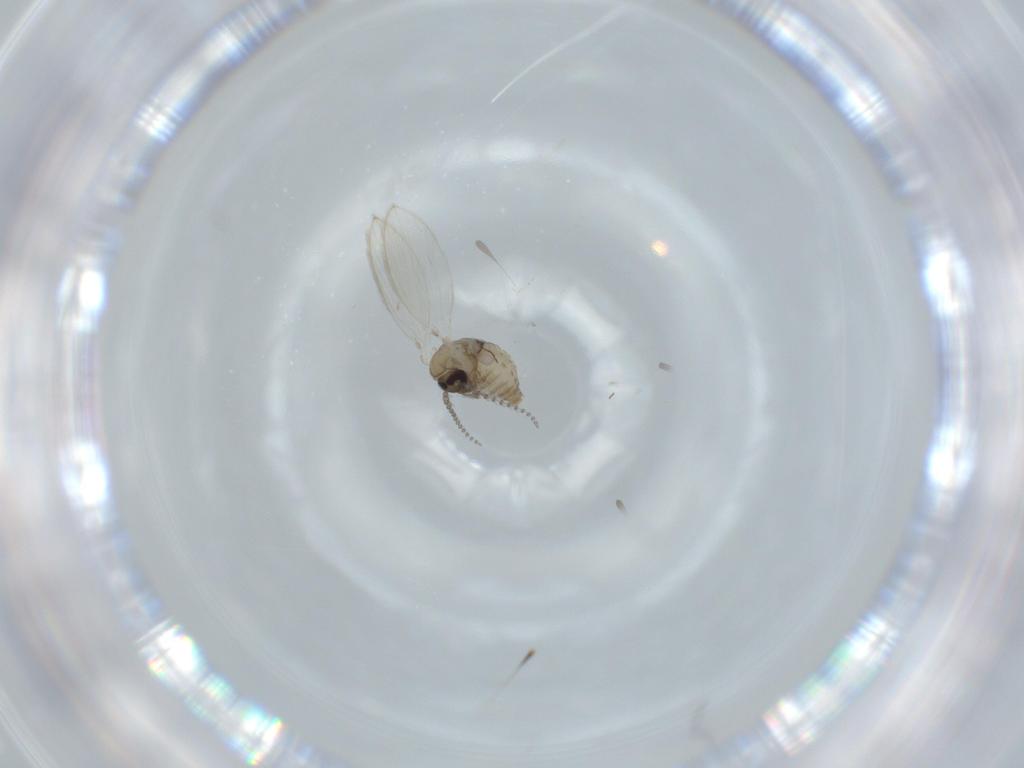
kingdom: Animalia
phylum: Arthropoda
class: Insecta
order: Diptera
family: Psychodidae
